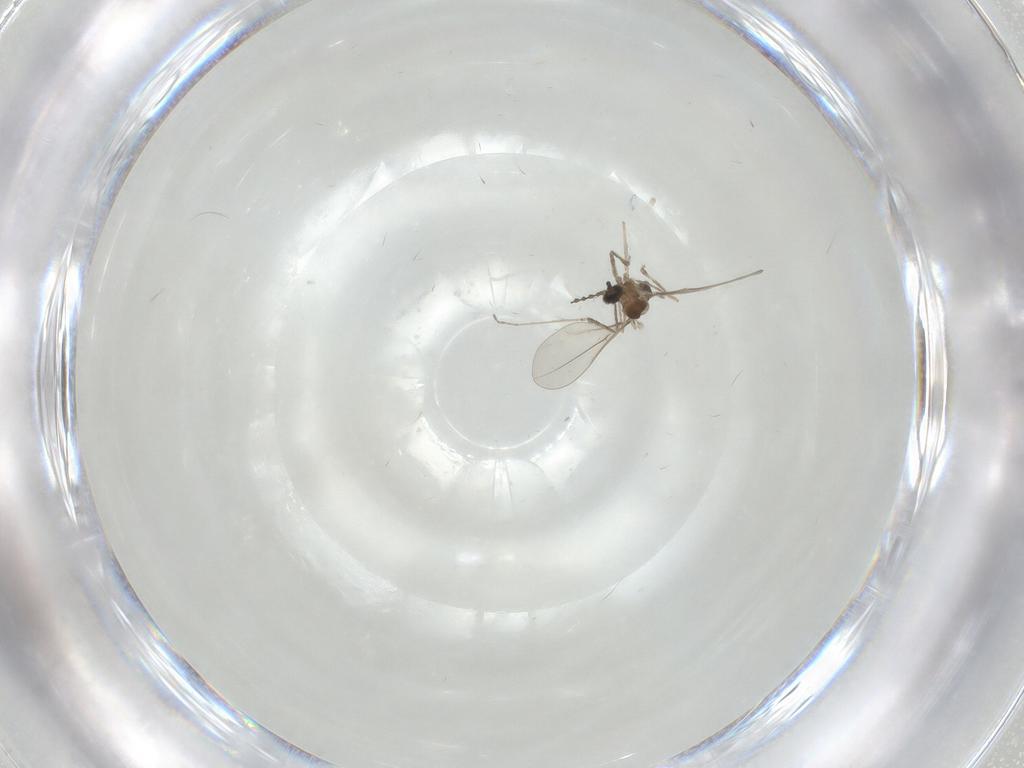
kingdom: Animalia
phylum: Arthropoda
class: Insecta
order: Diptera
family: Cecidomyiidae
